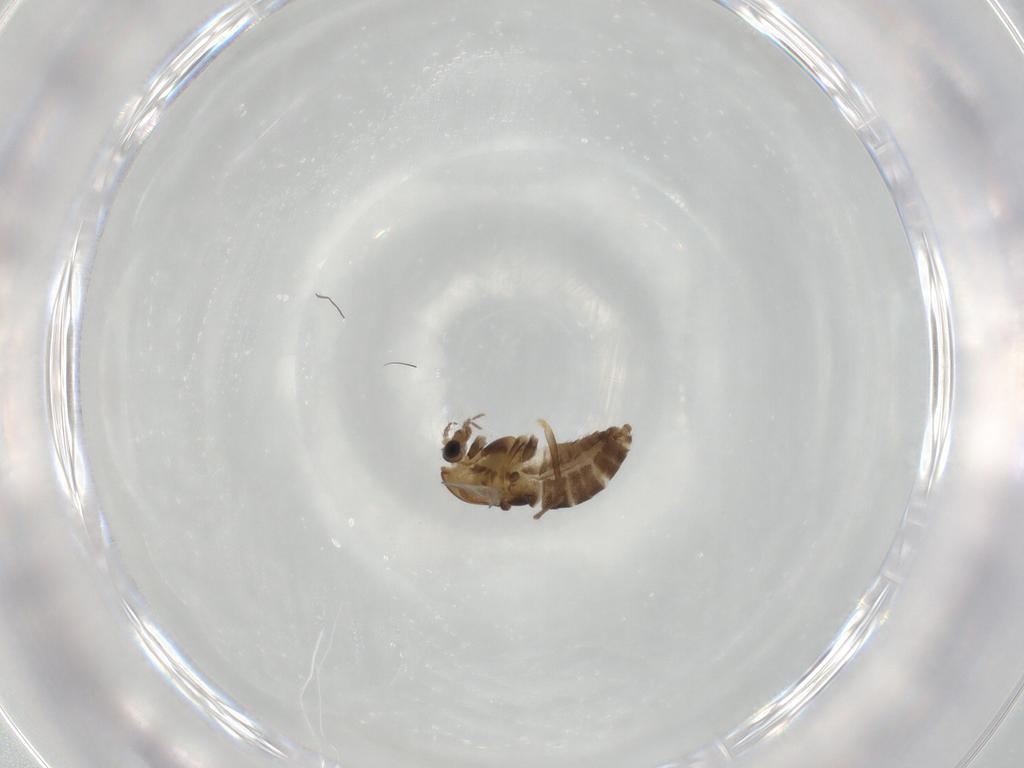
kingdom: Animalia
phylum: Arthropoda
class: Insecta
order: Diptera
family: Chironomidae
